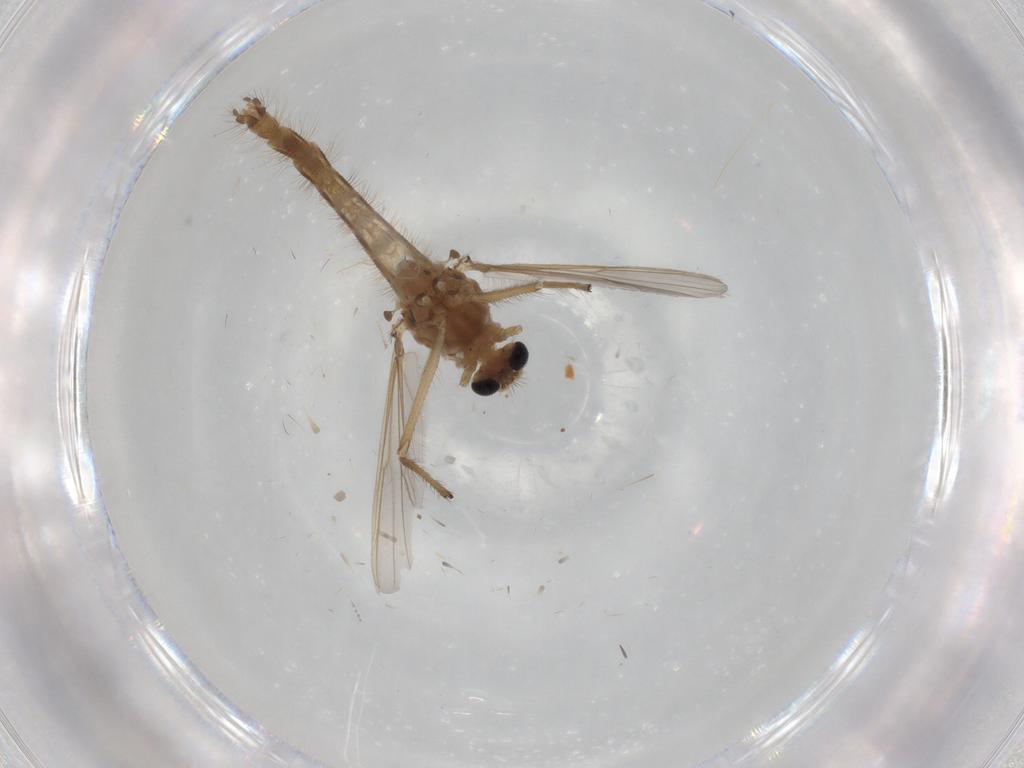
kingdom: Animalia
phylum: Arthropoda
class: Insecta
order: Diptera
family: Chironomidae
